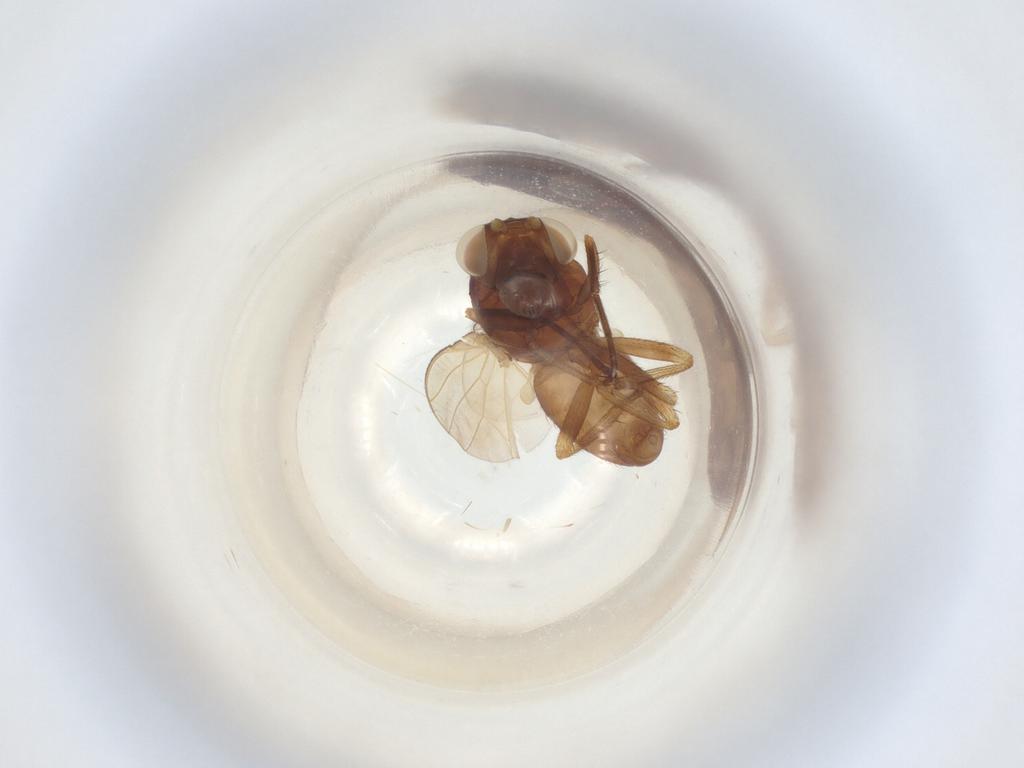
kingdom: Animalia
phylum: Arthropoda
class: Insecta
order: Diptera
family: Lauxaniidae
